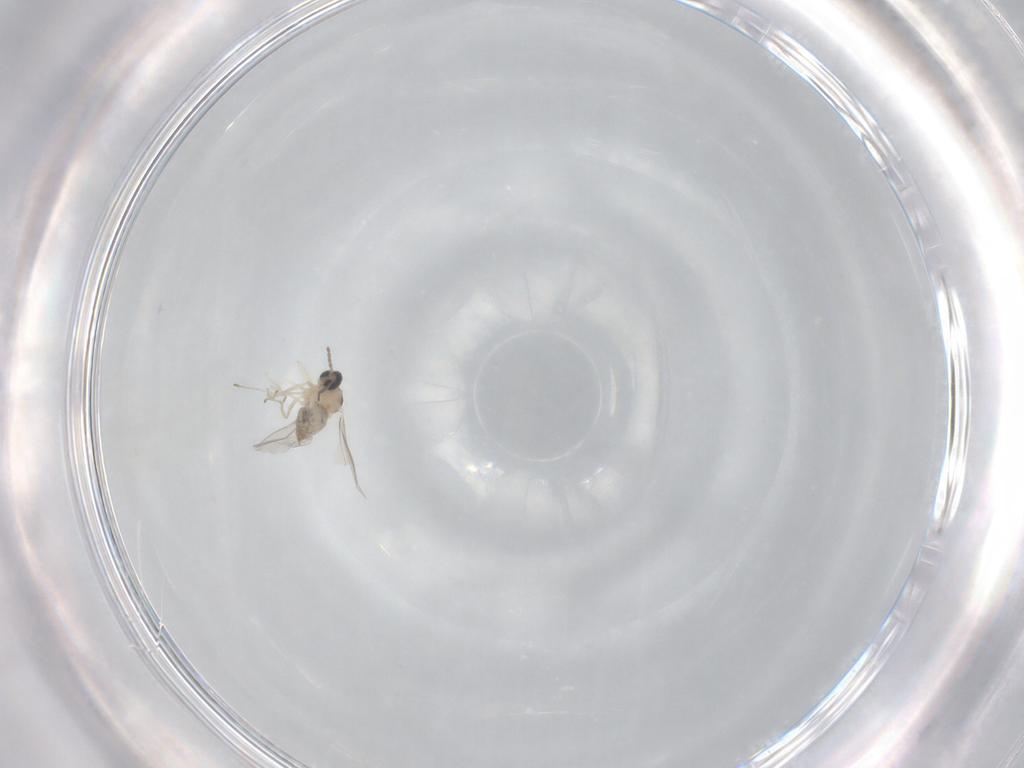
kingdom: Animalia
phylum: Arthropoda
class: Insecta
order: Diptera
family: Cecidomyiidae
